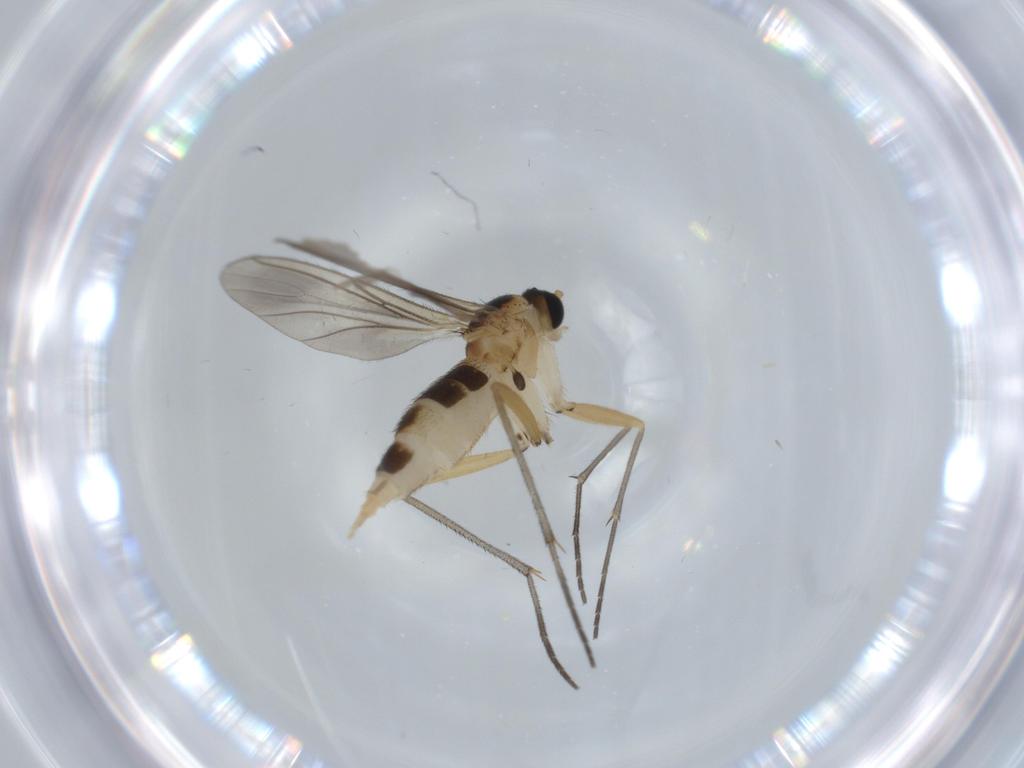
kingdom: Animalia
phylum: Arthropoda
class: Insecta
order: Diptera
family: Sciaridae
